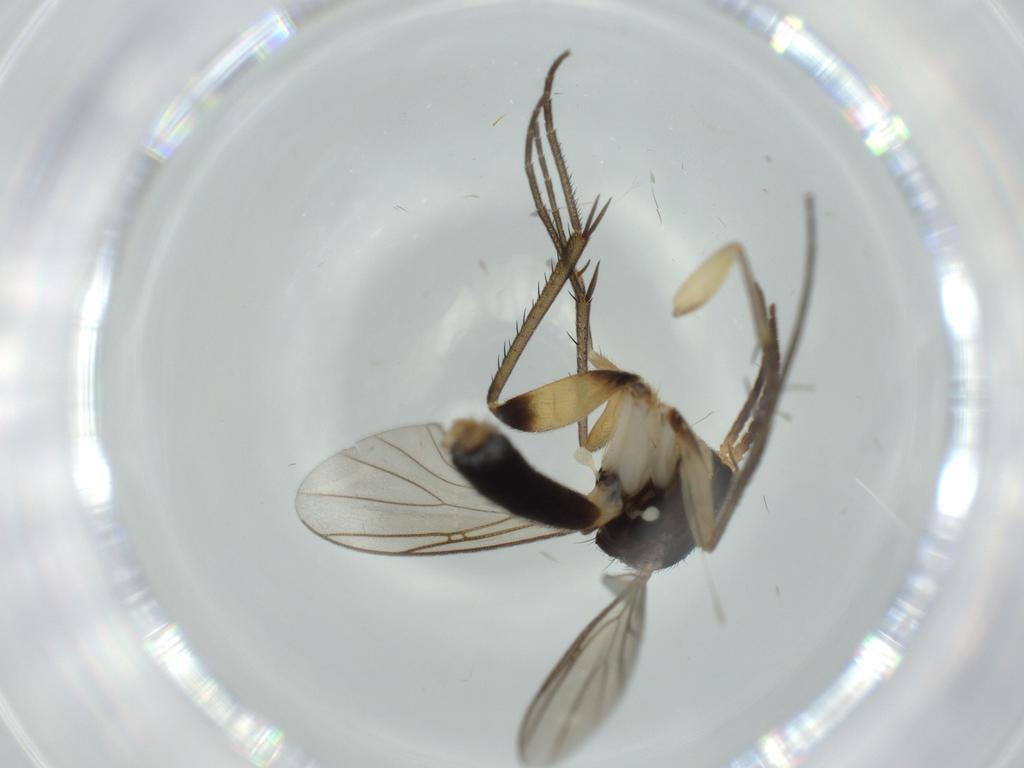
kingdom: Animalia
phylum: Arthropoda
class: Insecta
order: Diptera
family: Mycetophilidae
